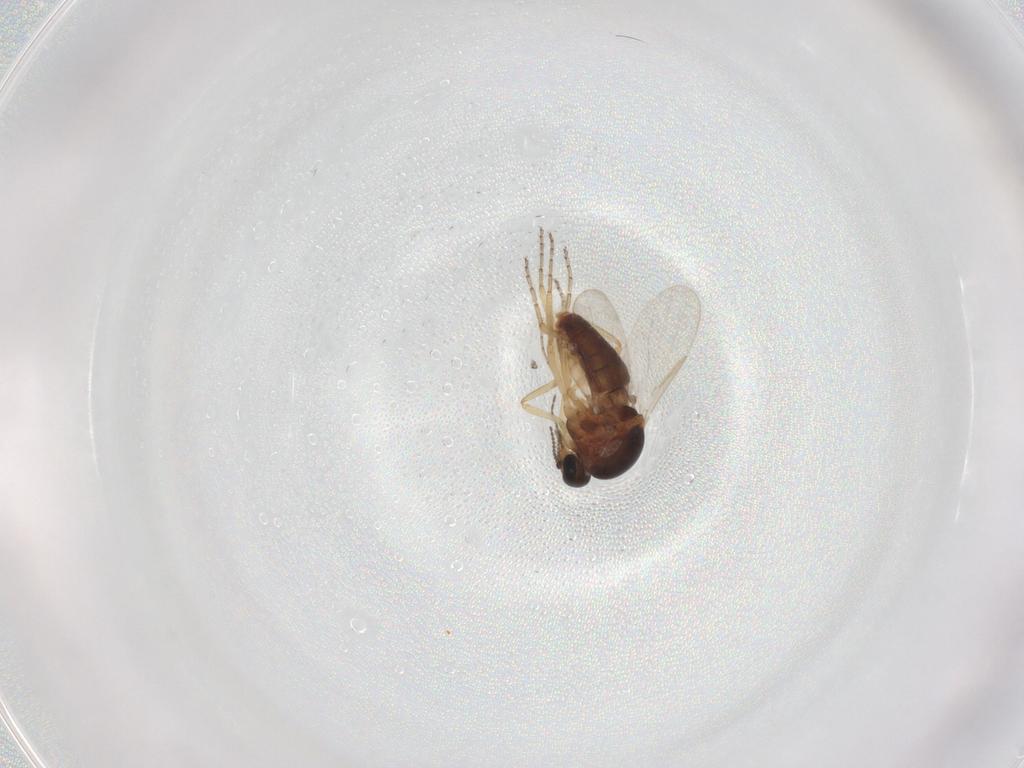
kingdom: Animalia
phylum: Arthropoda
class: Insecta
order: Diptera
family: Ceratopogonidae
